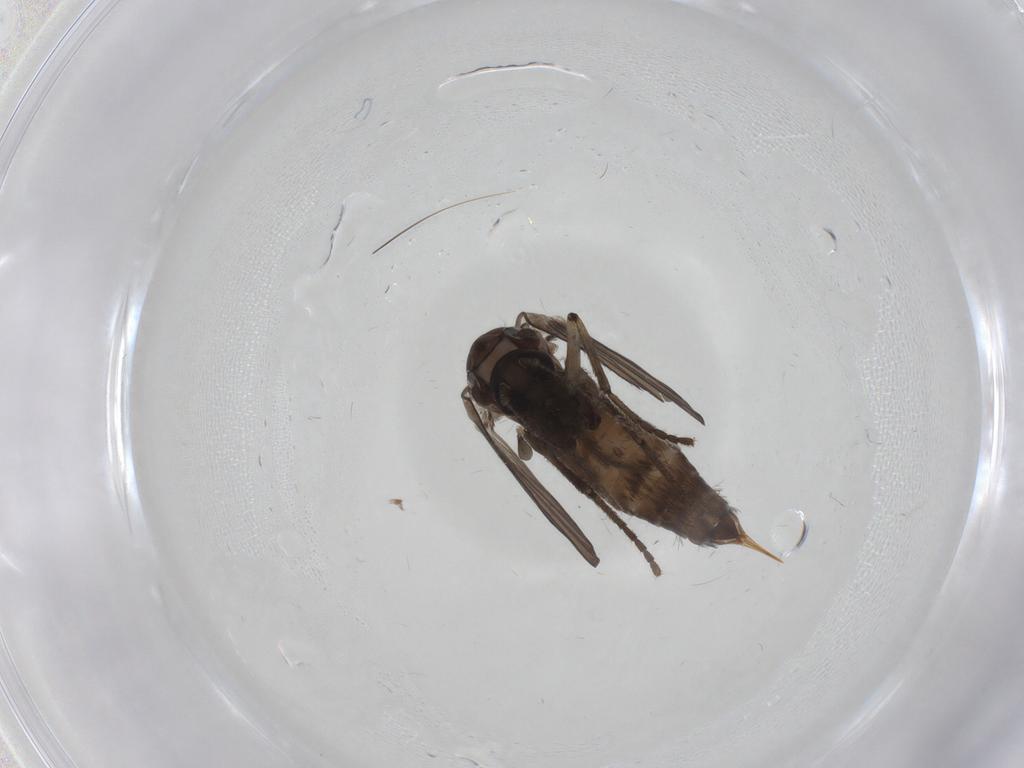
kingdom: Animalia
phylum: Arthropoda
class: Insecta
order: Diptera
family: Psychodidae
